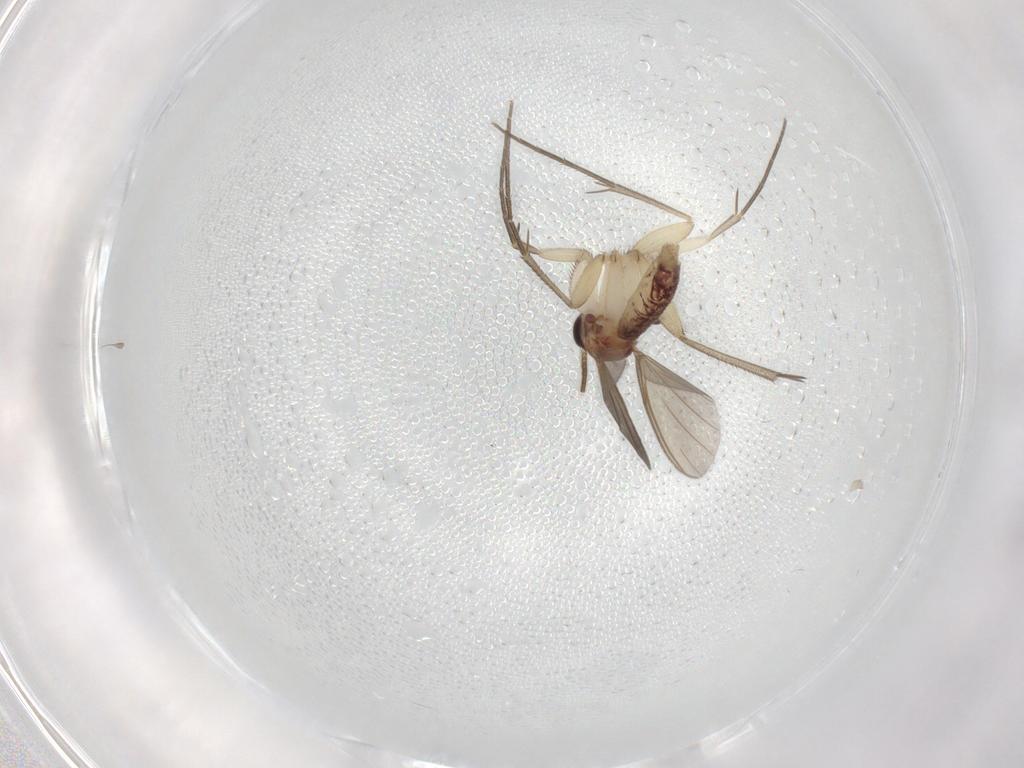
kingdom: Animalia
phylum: Arthropoda
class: Insecta
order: Diptera
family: Mycetophilidae
